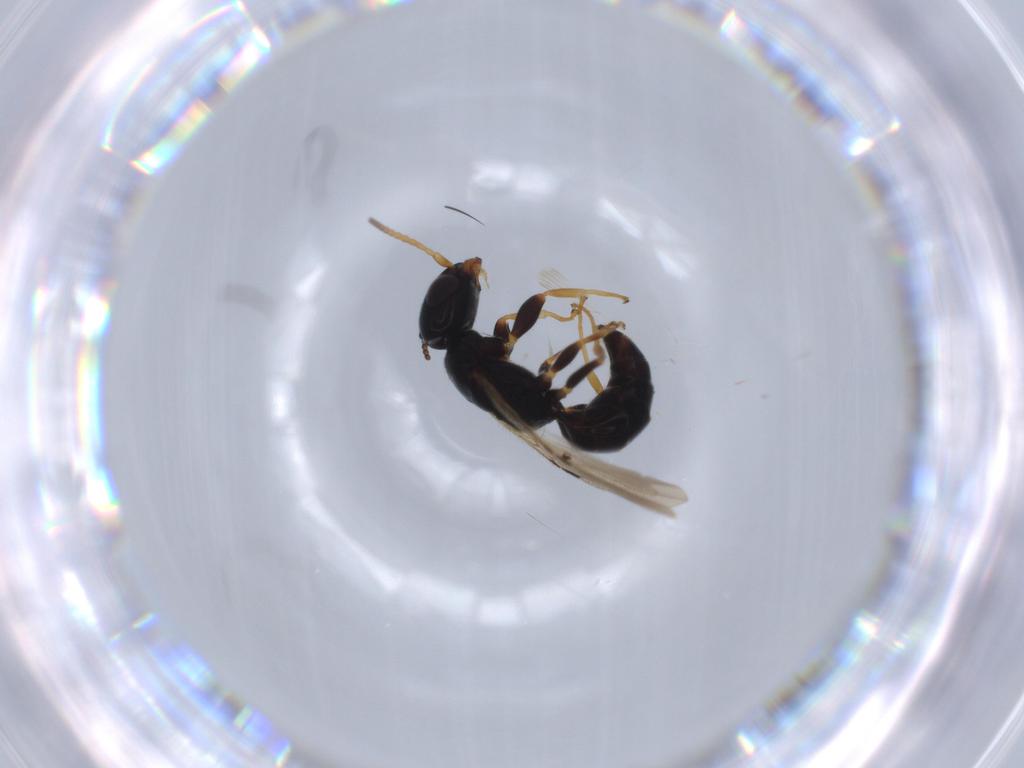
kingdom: Animalia
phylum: Arthropoda
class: Insecta
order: Hymenoptera
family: Bethylidae
